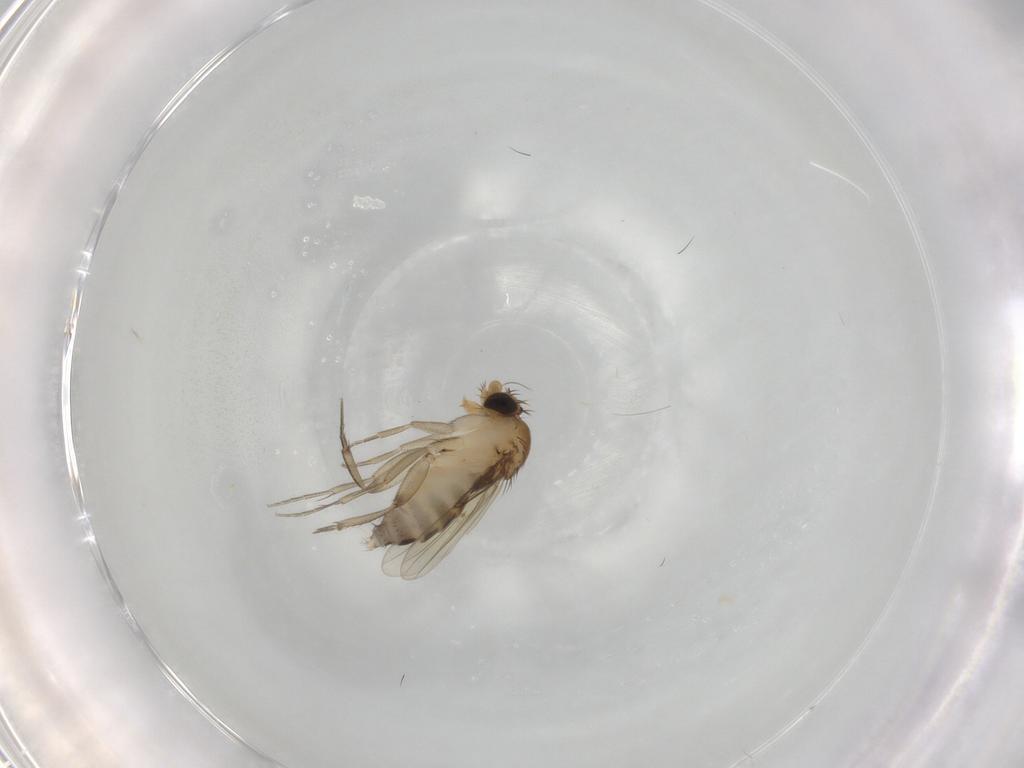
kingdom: Animalia
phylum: Arthropoda
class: Insecta
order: Diptera
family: Phoridae
